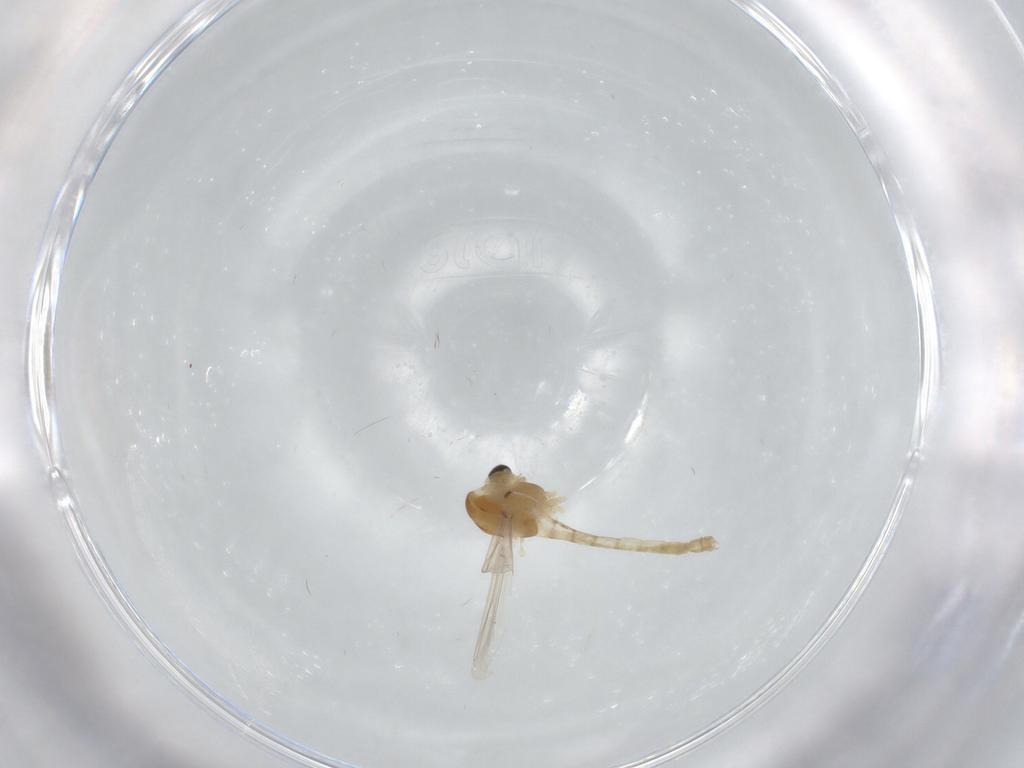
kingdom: Animalia
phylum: Arthropoda
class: Insecta
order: Diptera
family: Chironomidae
